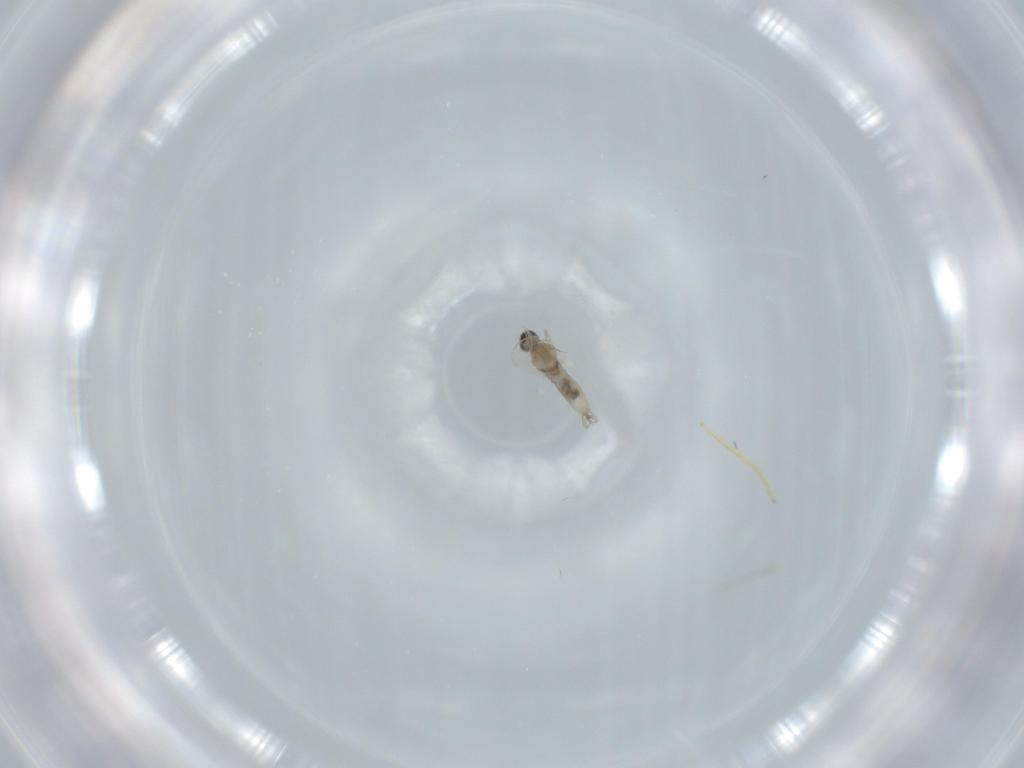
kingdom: Animalia
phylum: Arthropoda
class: Insecta
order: Diptera
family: Chironomidae
